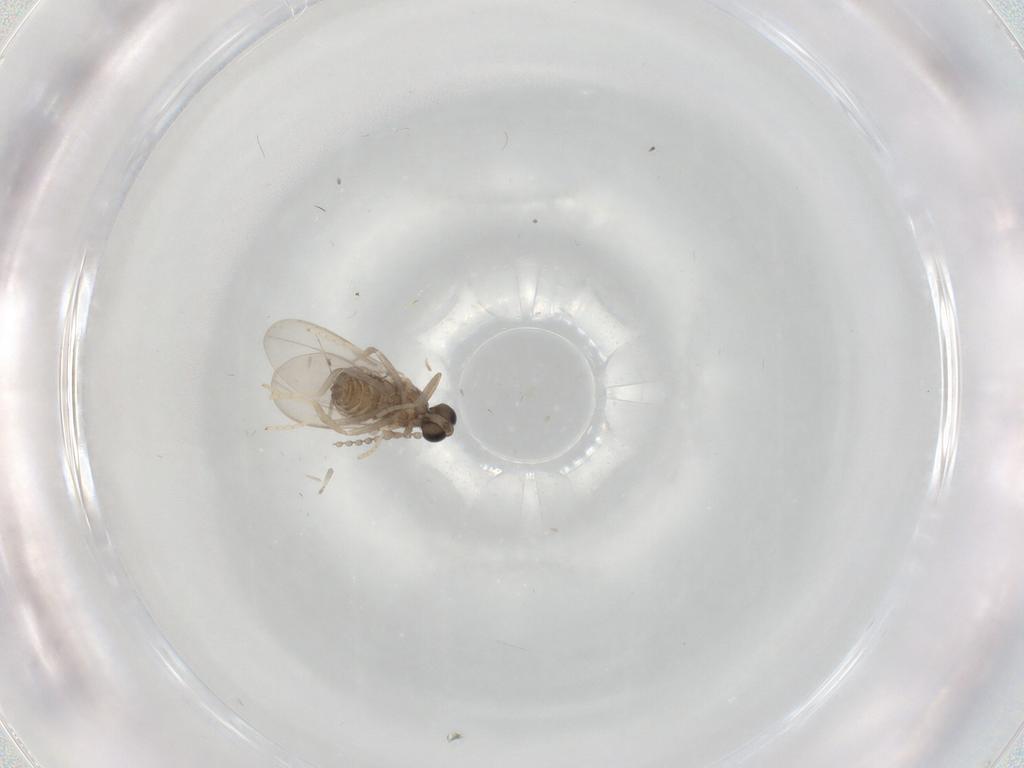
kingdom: Animalia
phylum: Arthropoda
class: Insecta
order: Diptera
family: Cecidomyiidae
